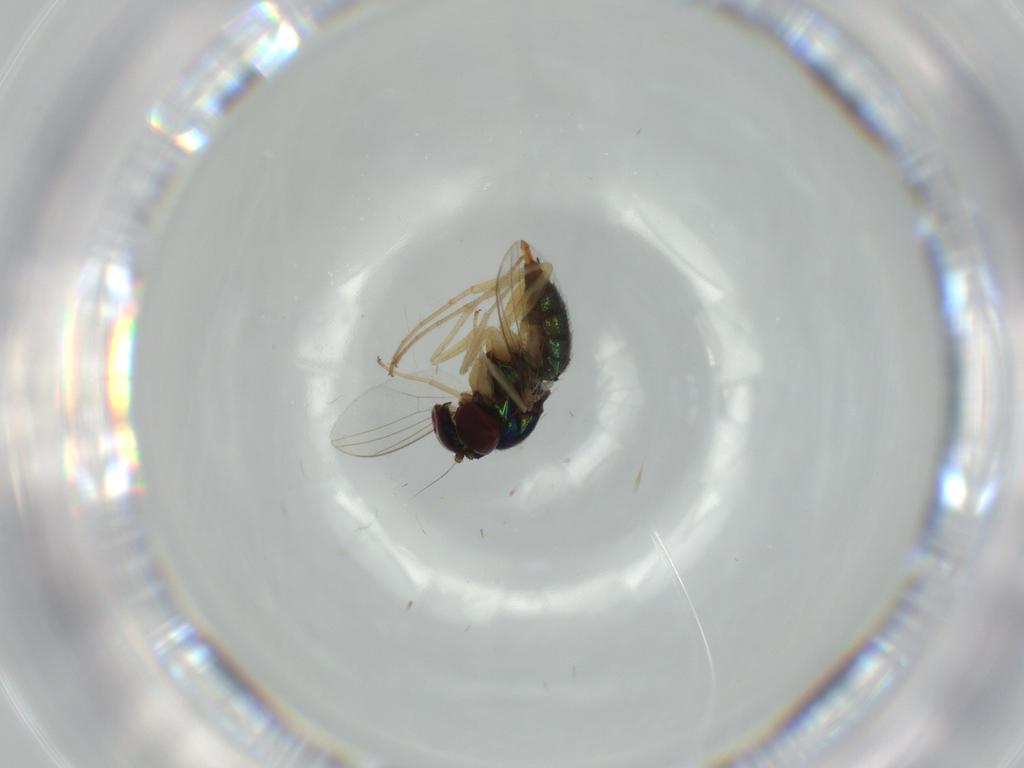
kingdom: Animalia
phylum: Arthropoda
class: Insecta
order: Diptera
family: Dolichopodidae
